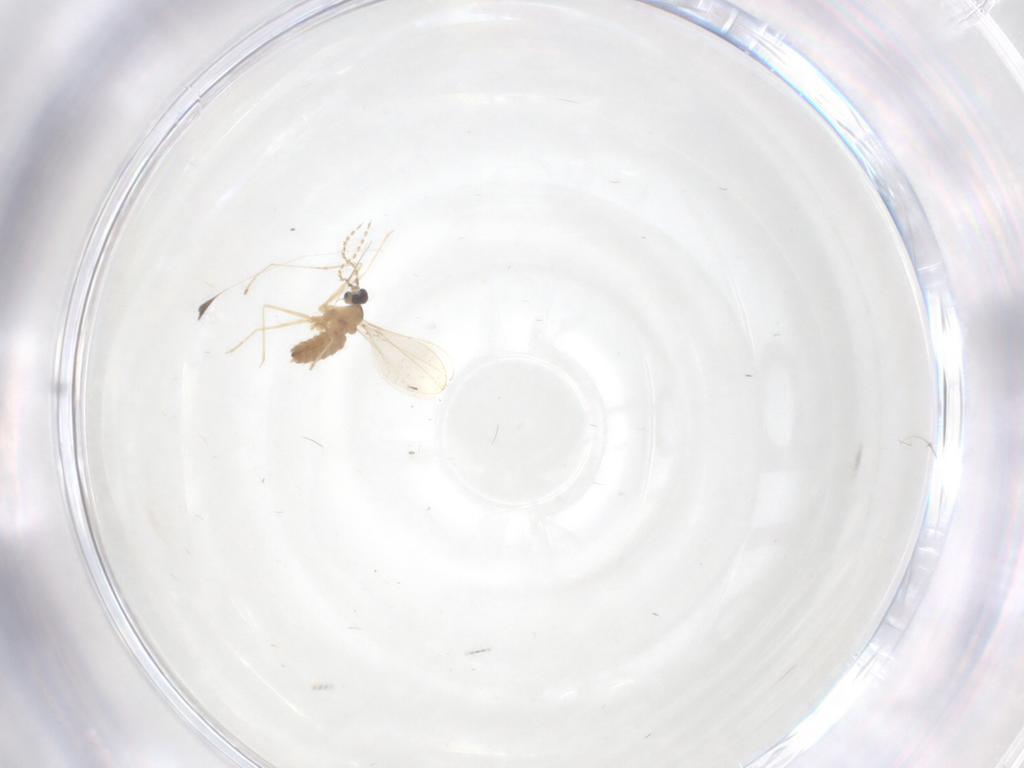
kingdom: Animalia
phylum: Arthropoda
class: Insecta
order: Diptera
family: Cecidomyiidae
